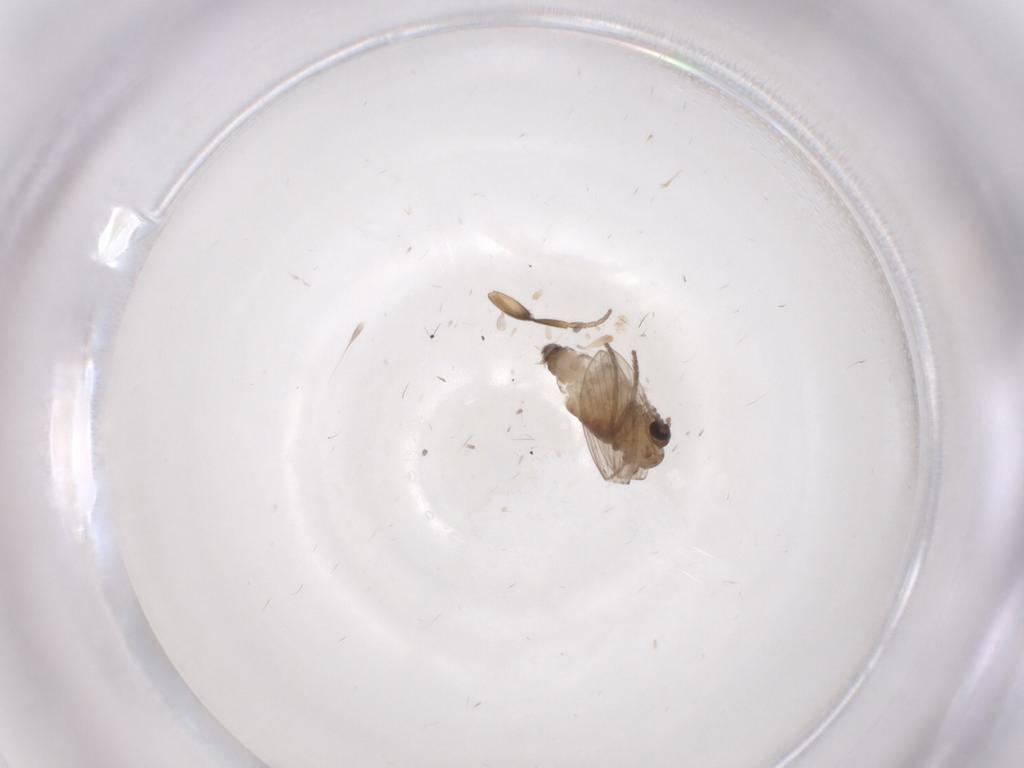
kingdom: Animalia
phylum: Arthropoda
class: Insecta
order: Diptera
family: Psychodidae
